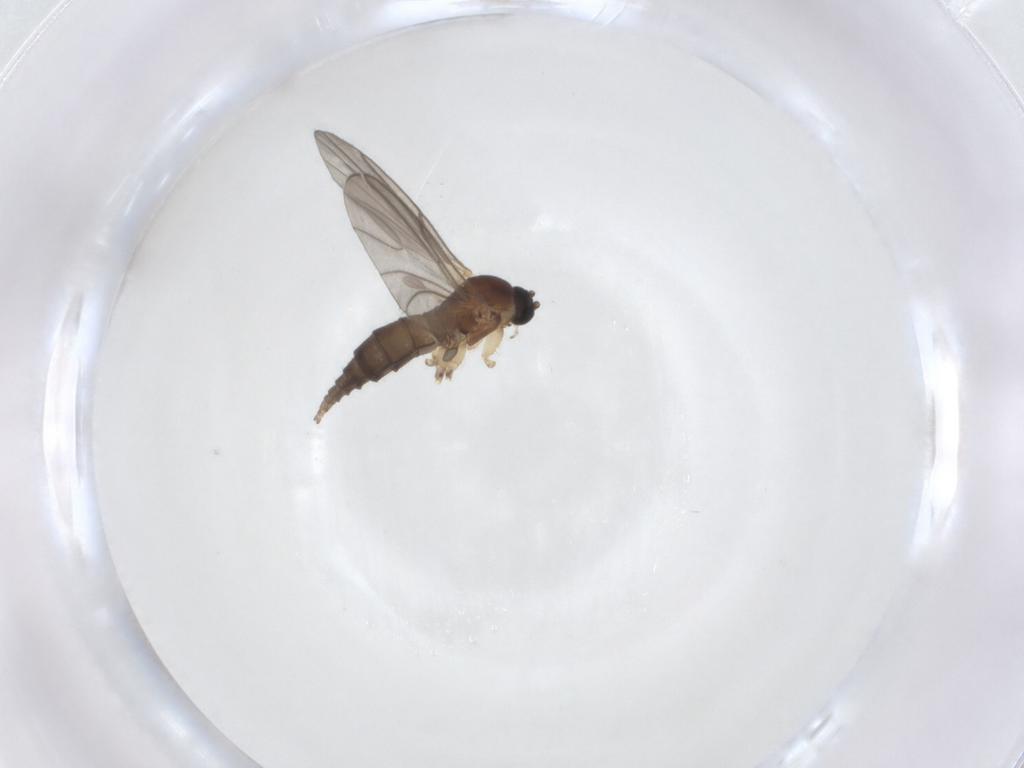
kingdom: Animalia
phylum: Arthropoda
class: Insecta
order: Diptera
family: Sciaridae
